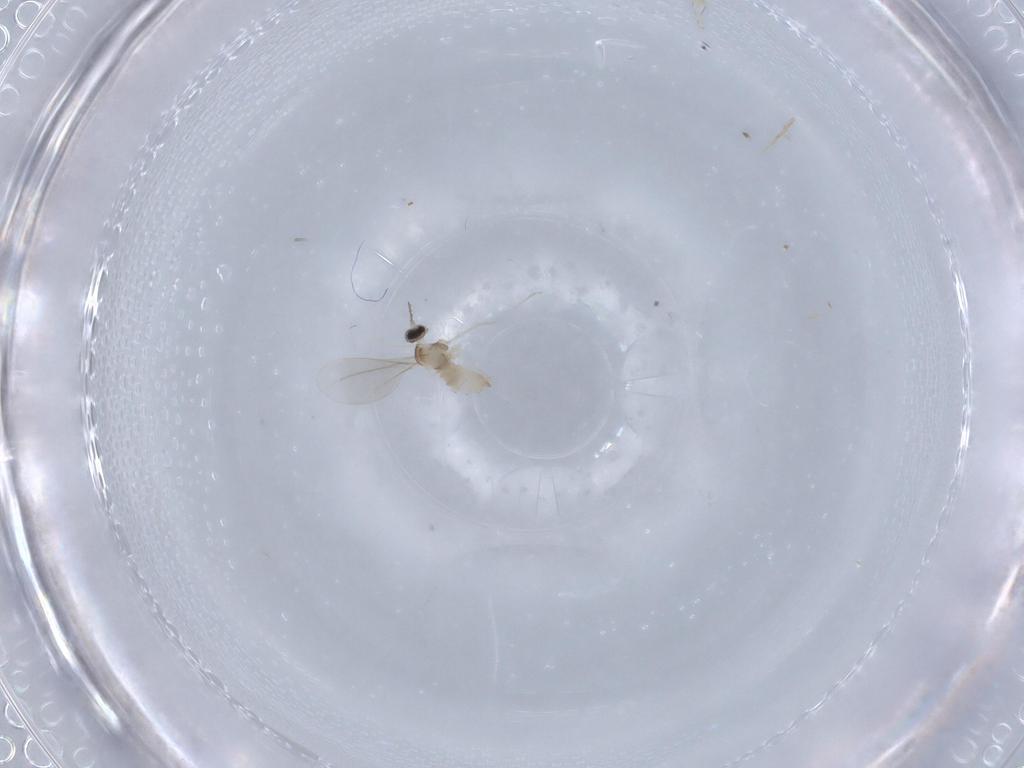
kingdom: Animalia
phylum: Arthropoda
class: Insecta
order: Diptera
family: Cecidomyiidae
